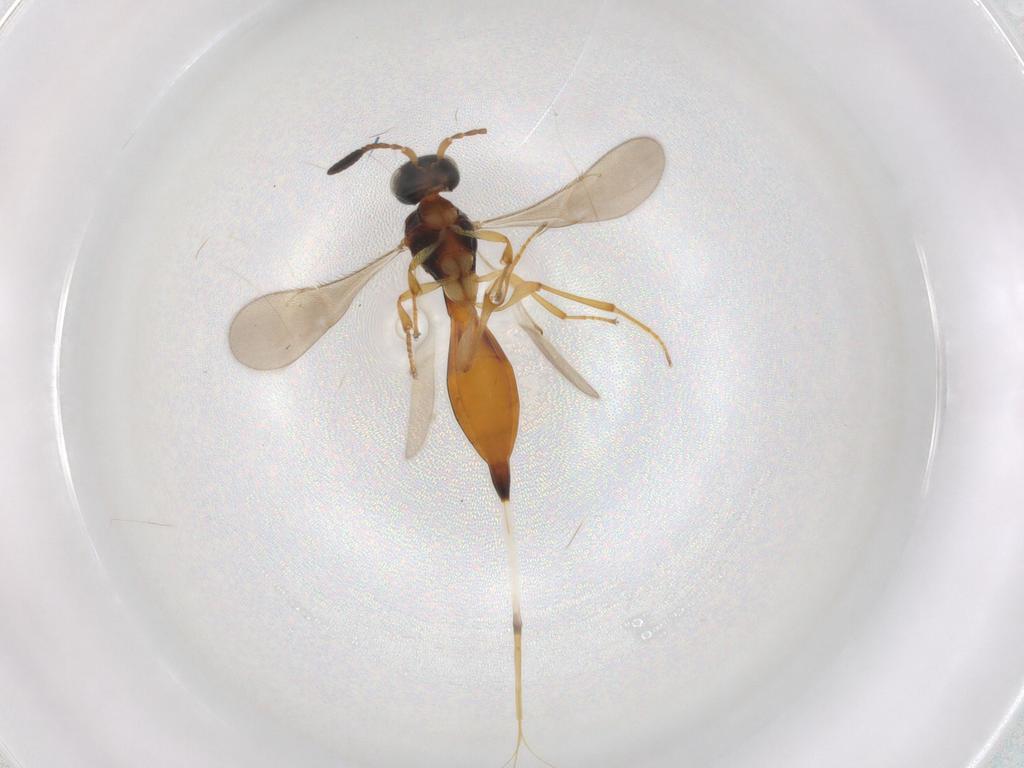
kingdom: Animalia
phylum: Arthropoda
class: Insecta
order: Hymenoptera
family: Scelionidae
